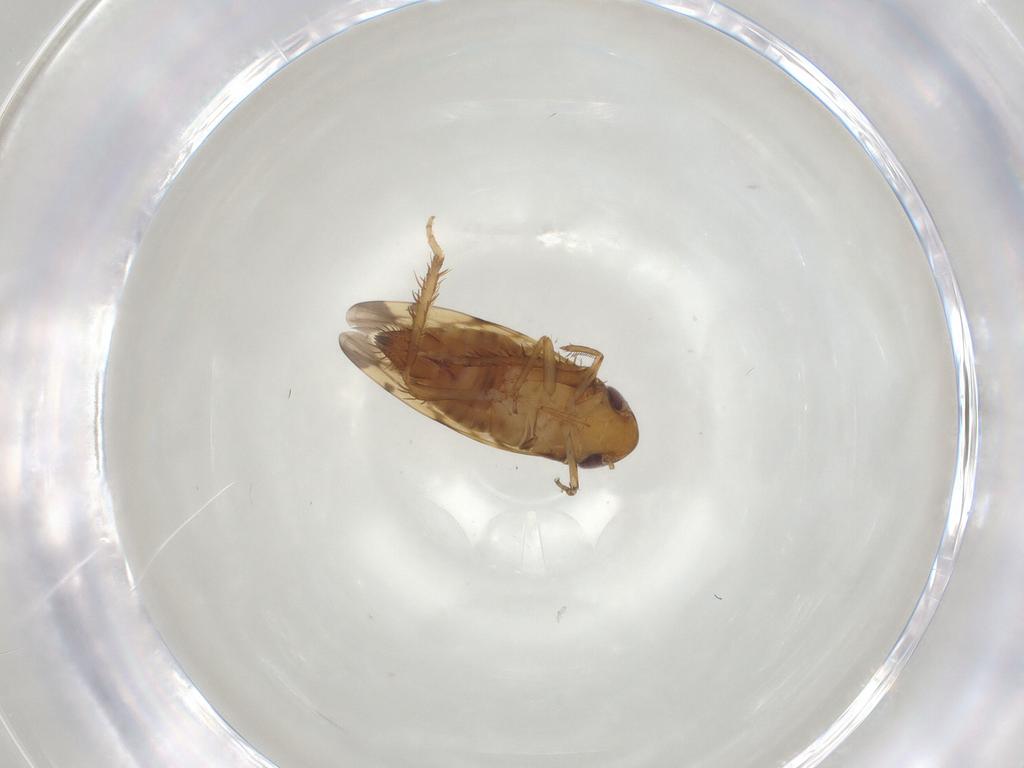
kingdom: Animalia
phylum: Arthropoda
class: Insecta
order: Hemiptera
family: Cicadellidae
